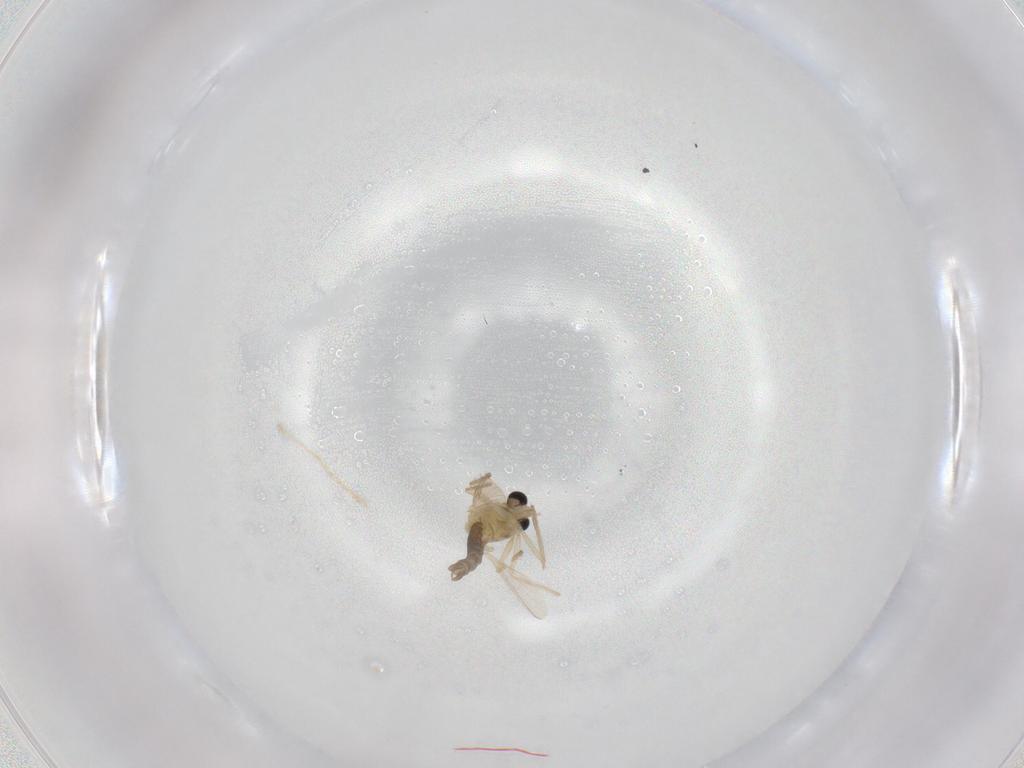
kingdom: Animalia
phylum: Arthropoda
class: Insecta
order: Diptera
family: Chironomidae
